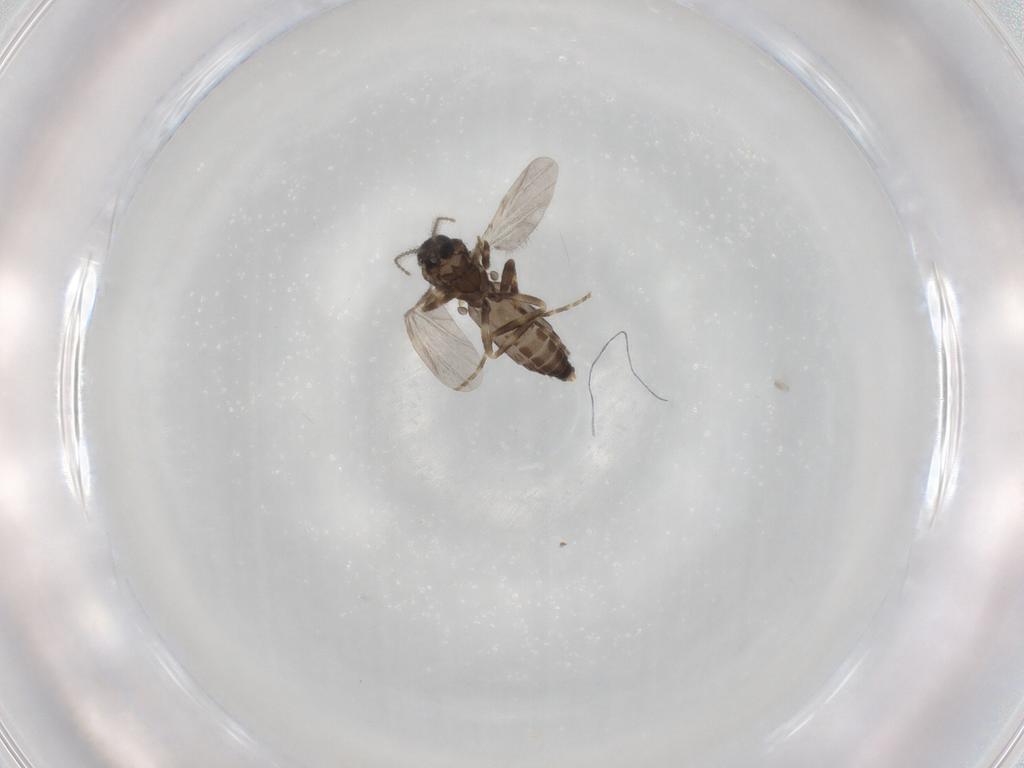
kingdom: Animalia
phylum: Arthropoda
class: Insecta
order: Diptera
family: Ceratopogonidae
